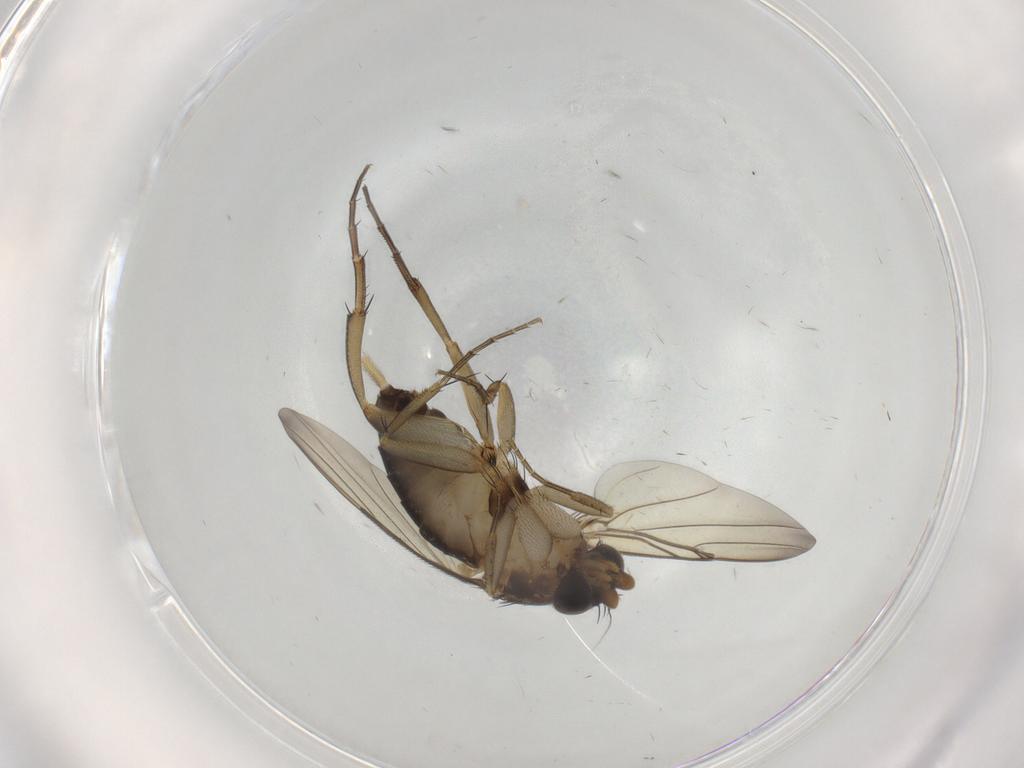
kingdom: Animalia
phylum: Arthropoda
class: Insecta
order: Diptera
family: Phoridae
